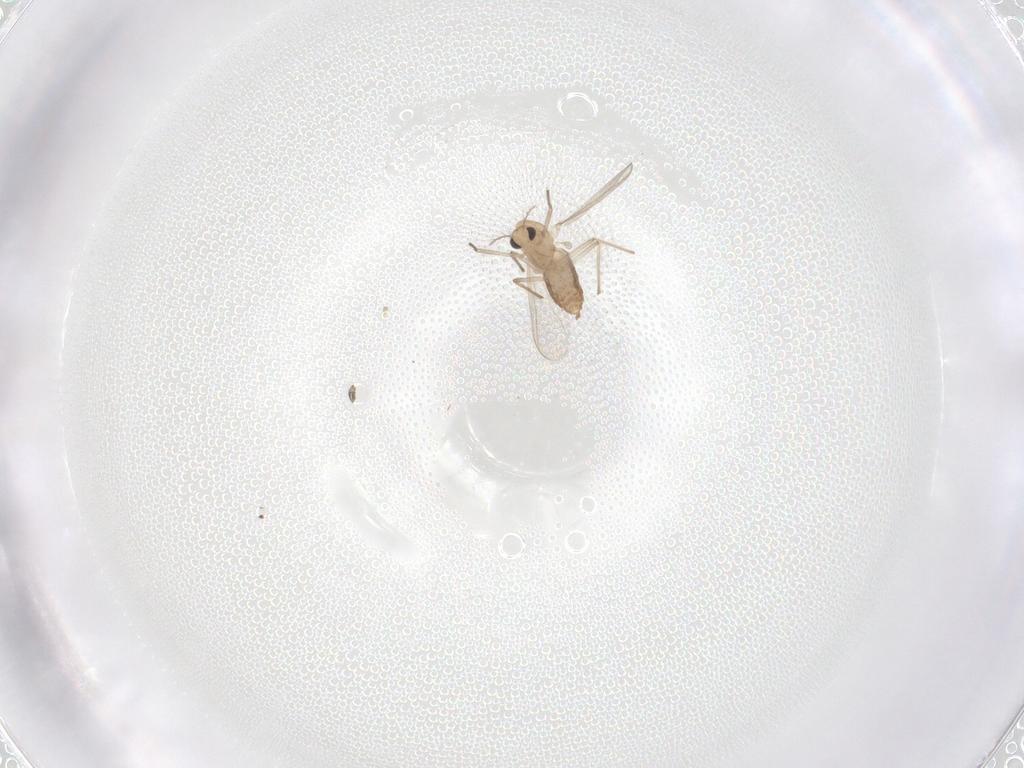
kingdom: Animalia
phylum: Arthropoda
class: Insecta
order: Diptera
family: Chironomidae
